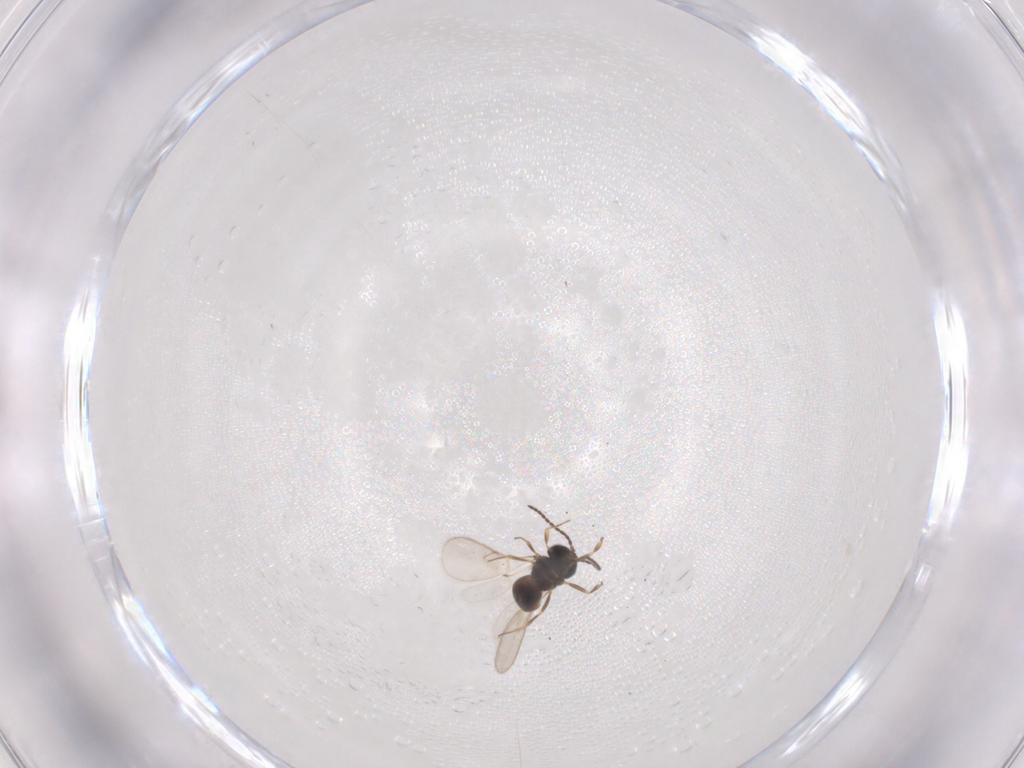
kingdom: Animalia
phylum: Arthropoda
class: Insecta
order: Hymenoptera
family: Scelionidae
